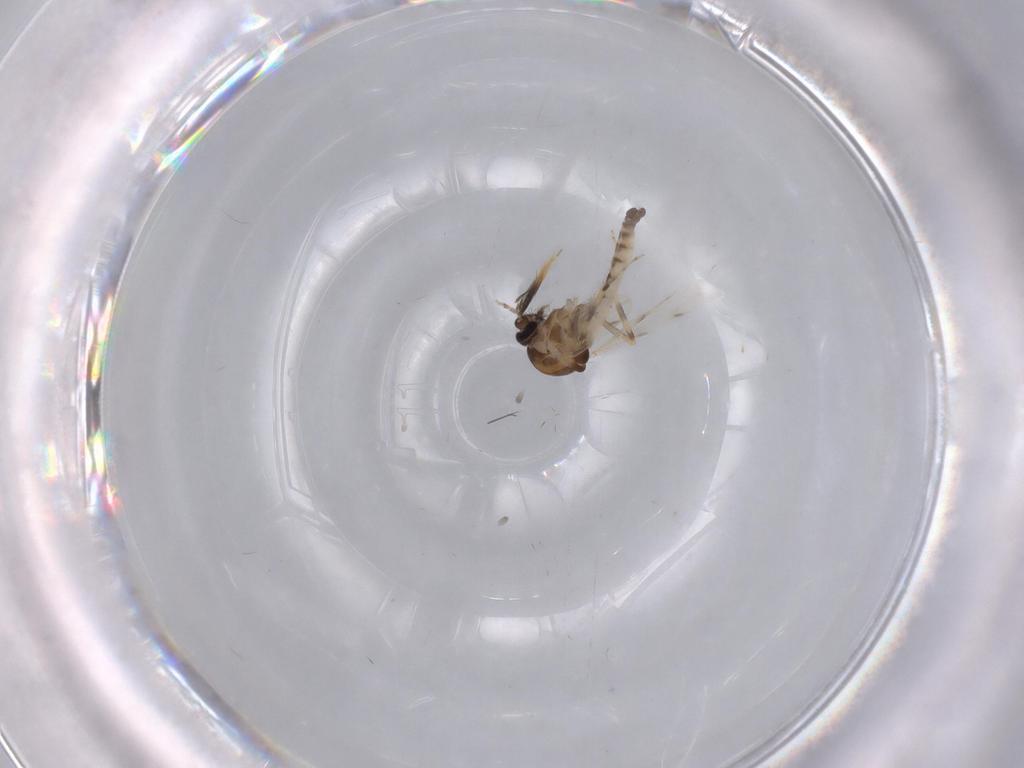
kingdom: Animalia
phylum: Arthropoda
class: Insecta
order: Diptera
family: Ceratopogonidae
